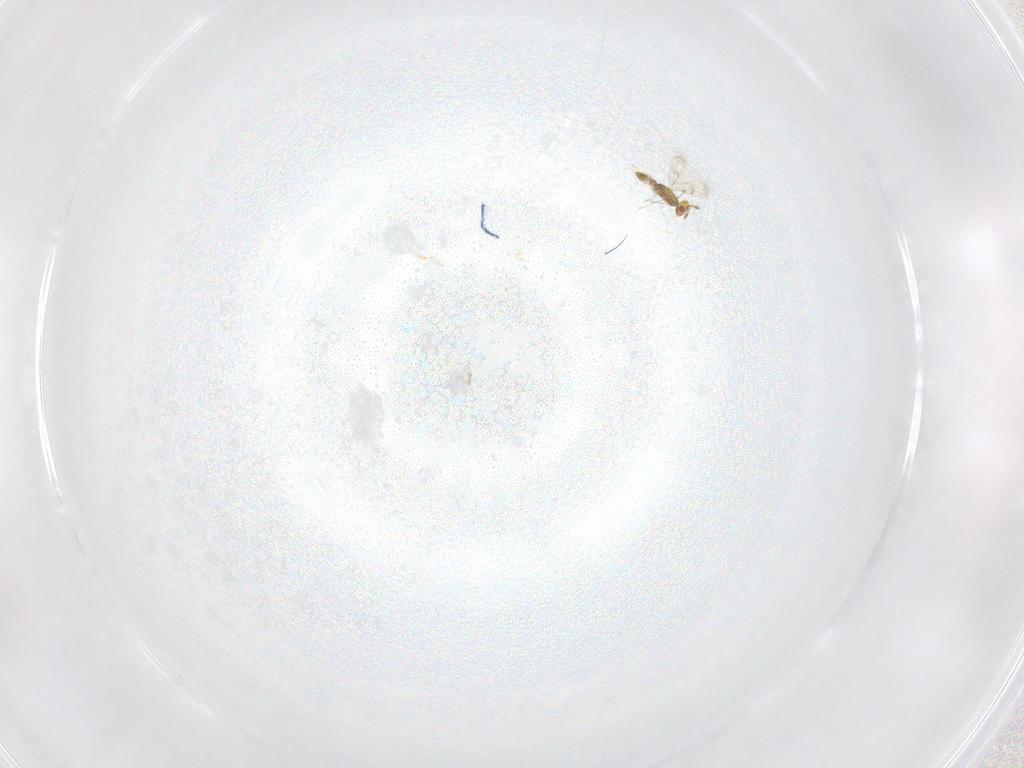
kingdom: Animalia
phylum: Arthropoda
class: Insecta
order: Hymenoptera
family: Eulophidae
